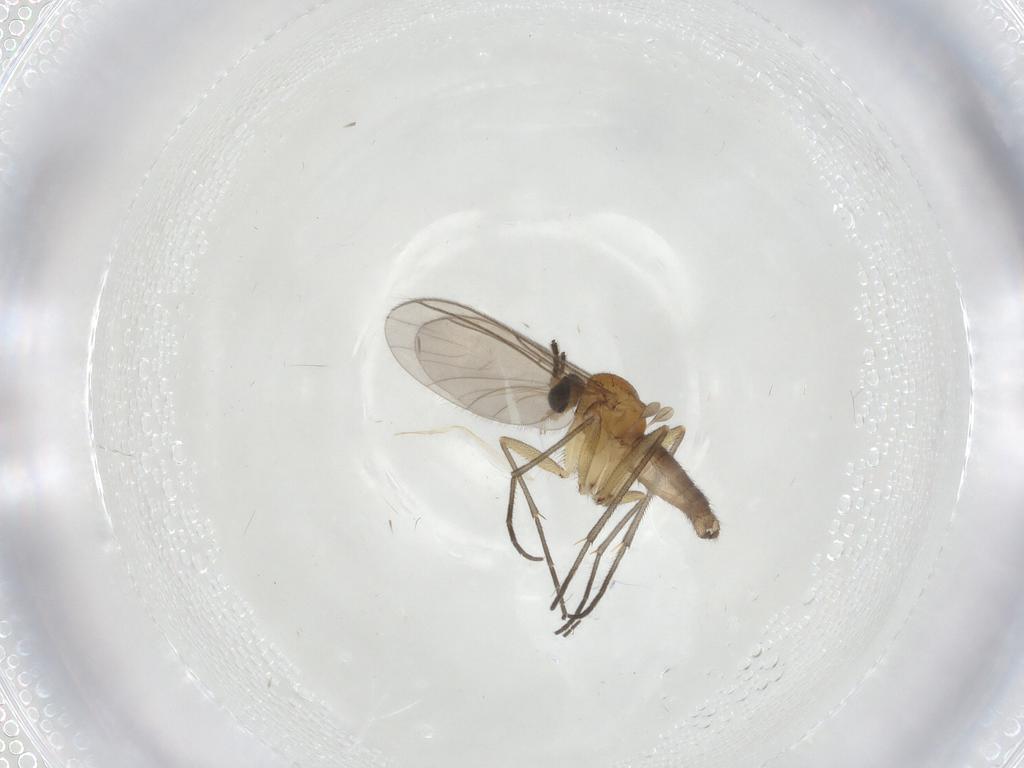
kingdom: Animalia
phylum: Arthropoda
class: Insecta
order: Diptera
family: Sciaridae
